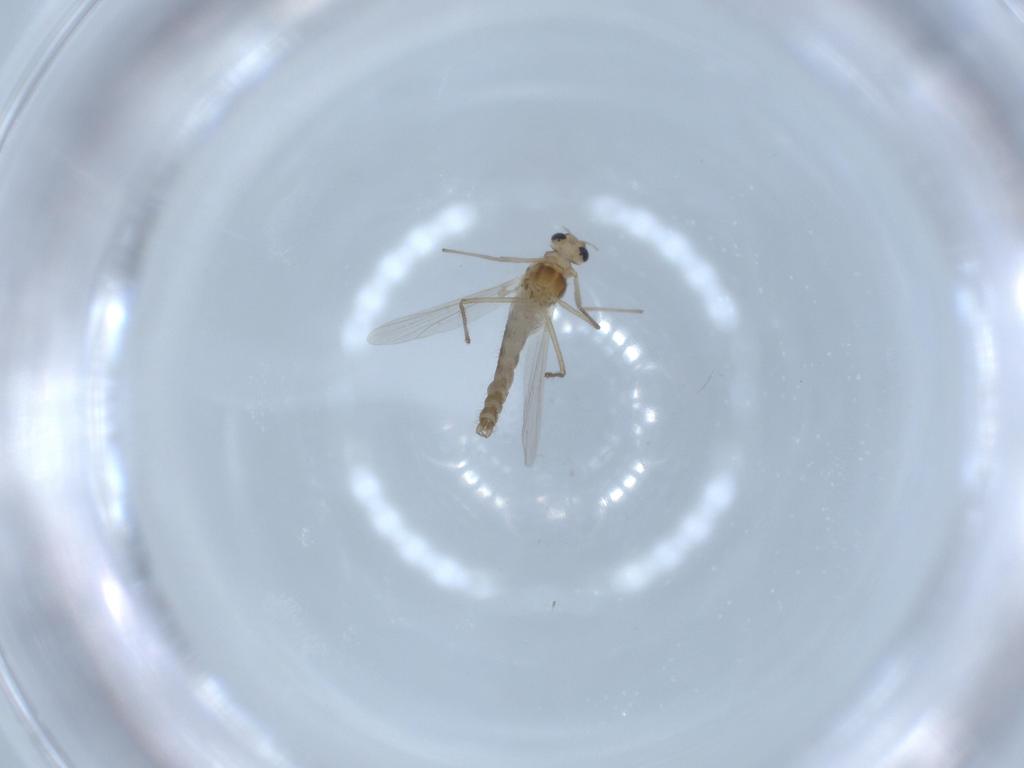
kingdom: Animalia
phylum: Arthropoda
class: Insecta
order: Diptera
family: Chironomidae
